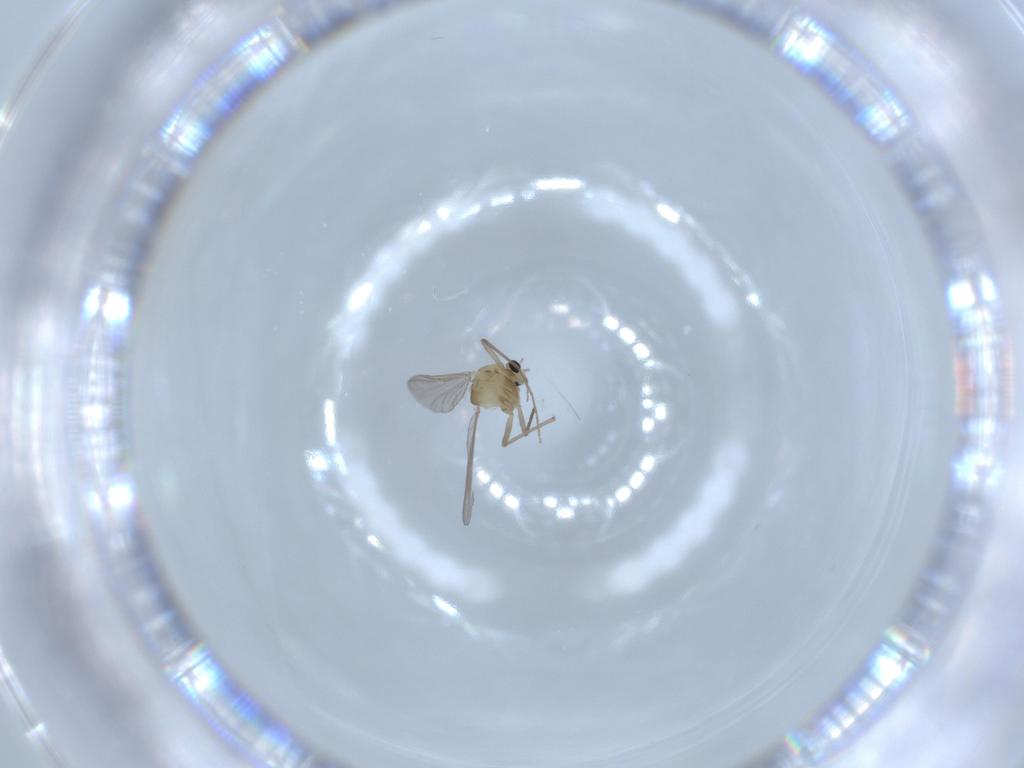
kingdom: Animalia
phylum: Arthropoda
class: Insecta
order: Diptera
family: Chironomidae
